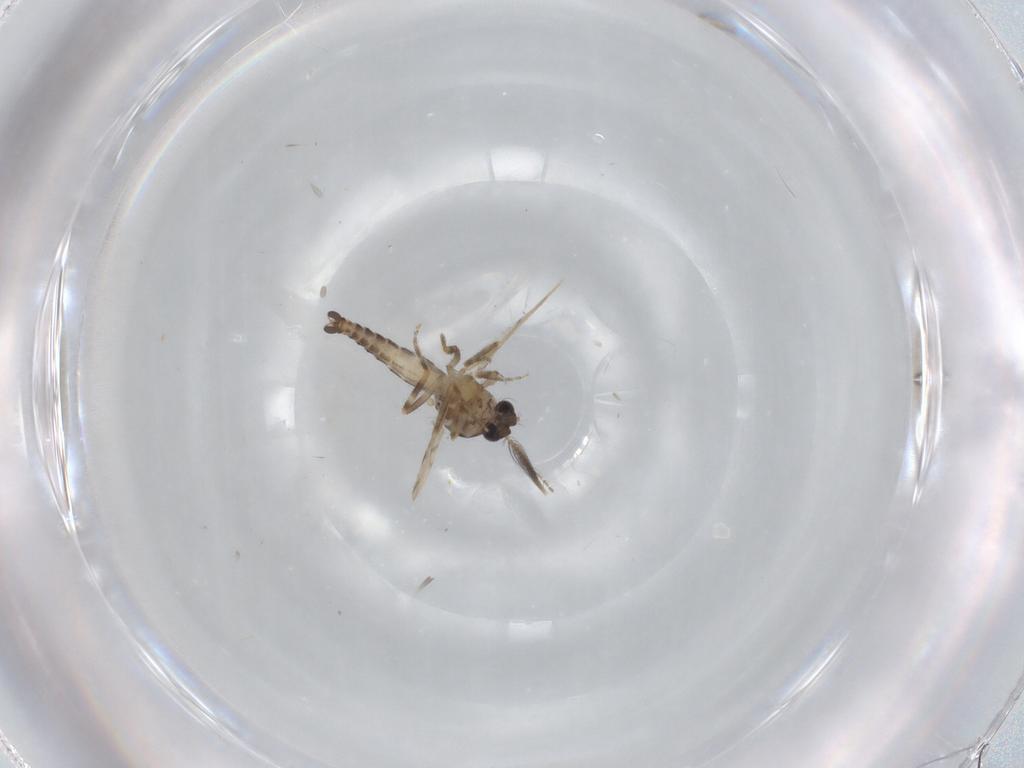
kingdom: Animalia
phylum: Arthropoda
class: Insecta
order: Diptera
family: Ceratopogonidae
